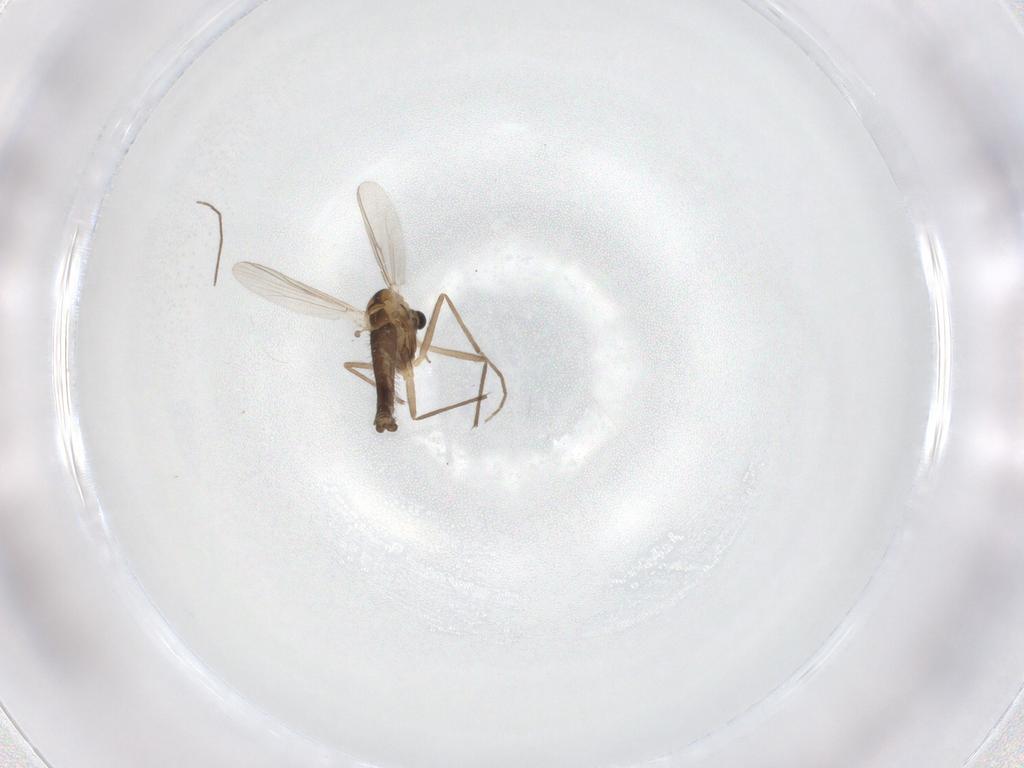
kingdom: Animalia
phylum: Arthropoda
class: Insecta
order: Diptera
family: Chironomidae
